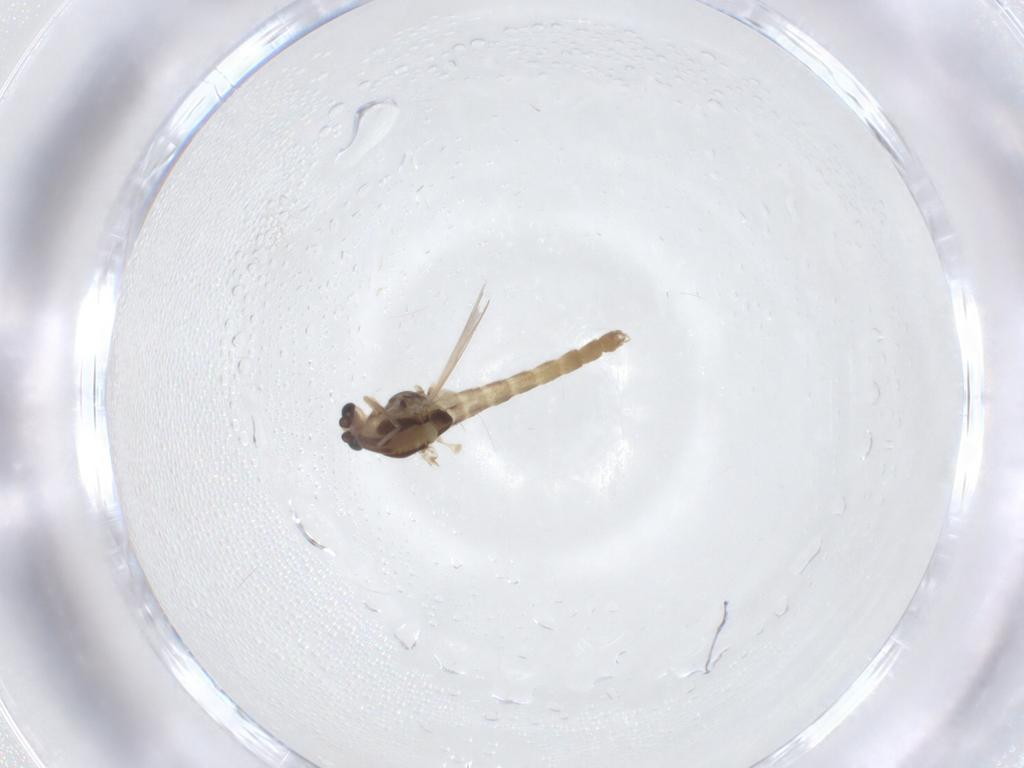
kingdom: Animalia
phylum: Arthropoda
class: Insecta
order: Diptera
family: Chironomidae
